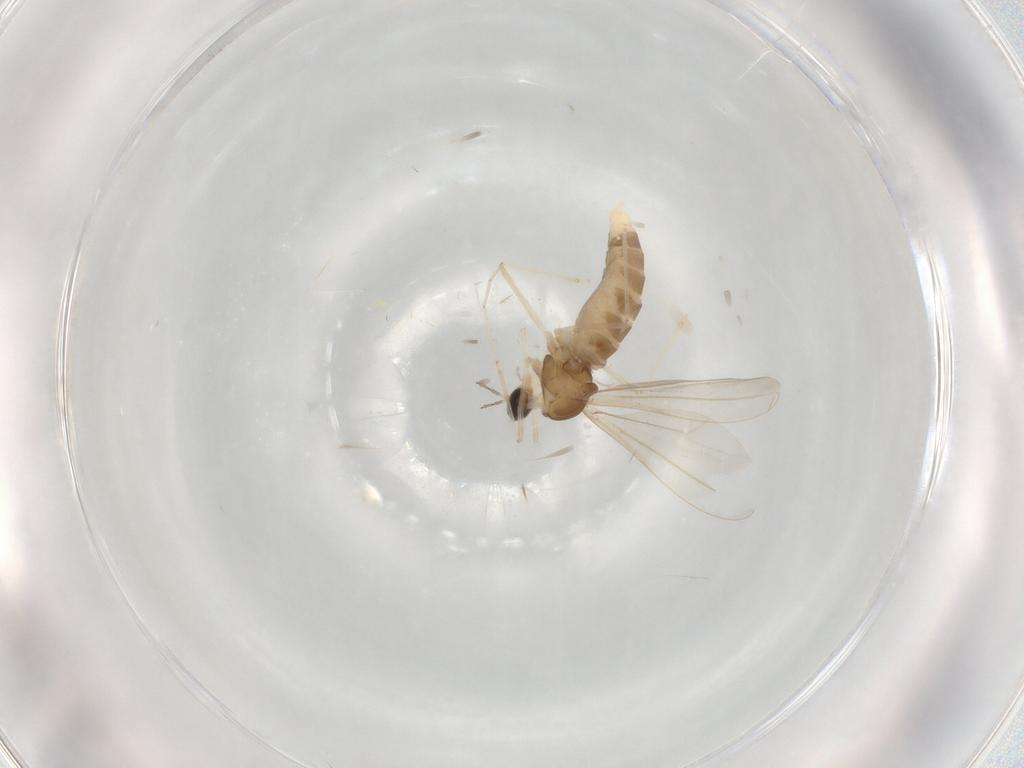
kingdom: Animalia
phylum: Arthropoda
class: Insecta
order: Diptera
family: Cecidomyiidae
